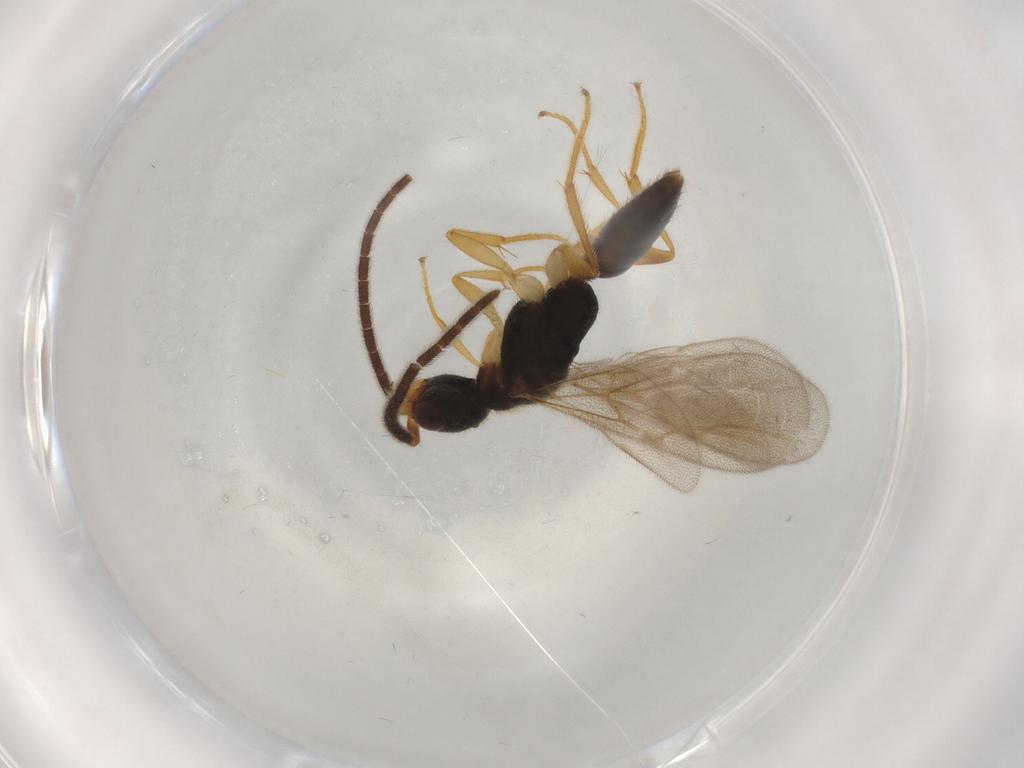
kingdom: Animalia
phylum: Arthropoda
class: Insecta
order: Hymenoptera
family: Bethylidae
